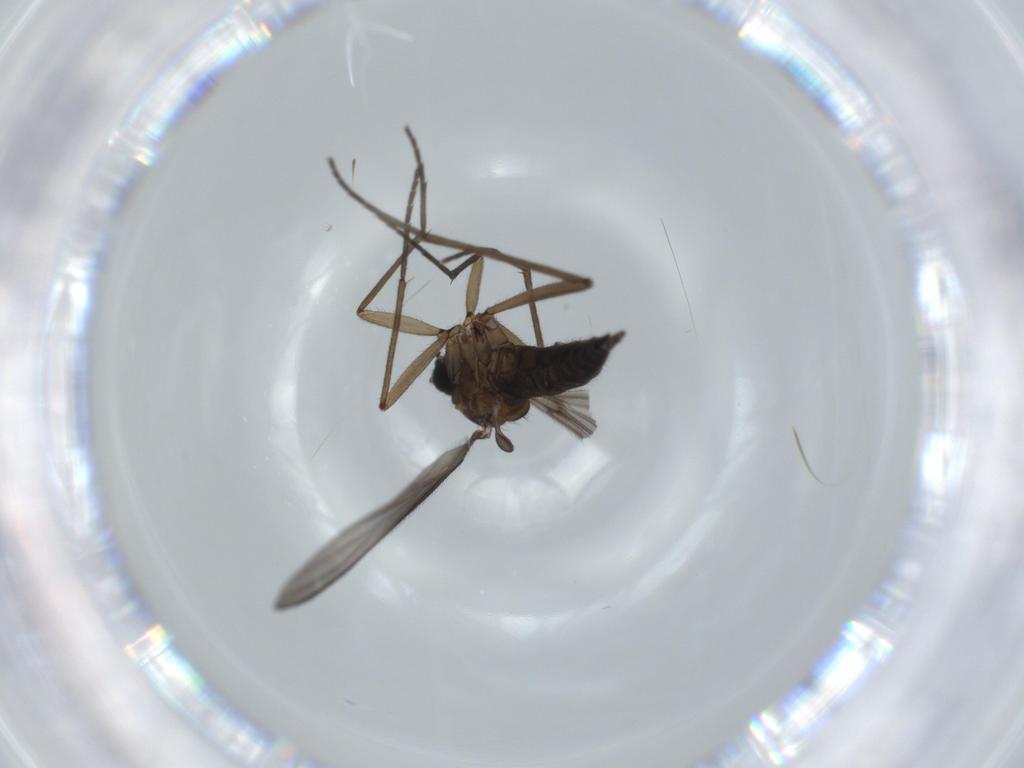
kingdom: Animalia
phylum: Arthropoda
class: Insecta
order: Diptera
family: Sciaridae
